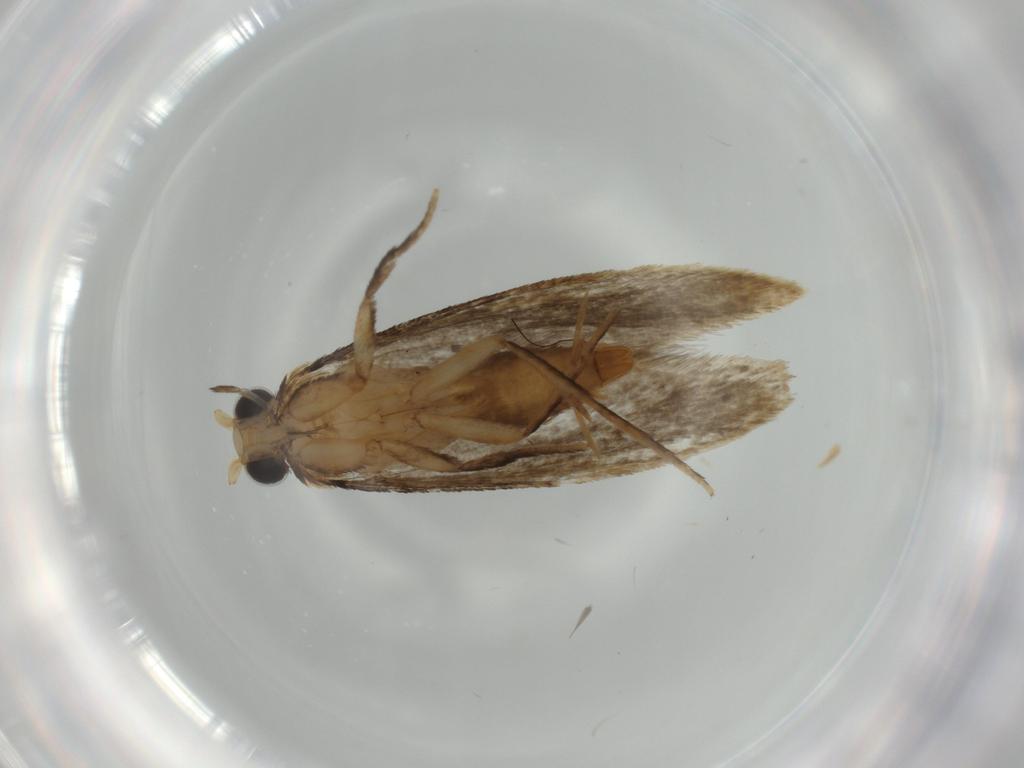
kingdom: Animalia
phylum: Arthropoda
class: Insecta
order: Lepidoptera
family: Tineidae
